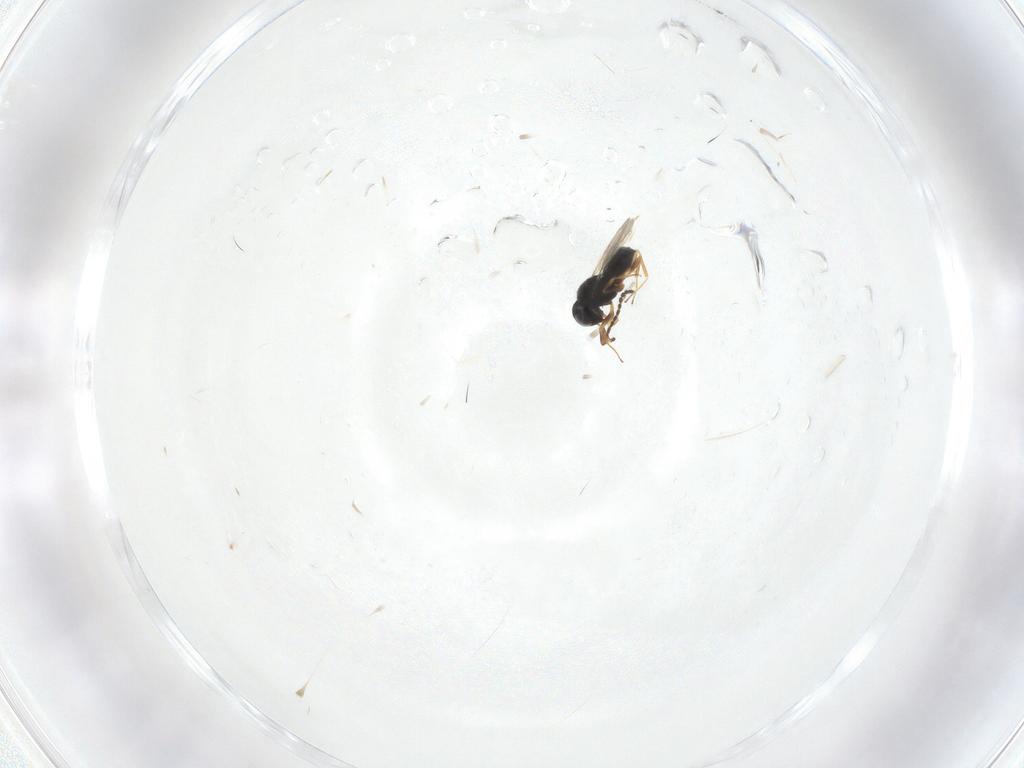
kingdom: Animalia
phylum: Arthropoda
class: Insecta
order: Hymenoptera
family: Scelionidae
